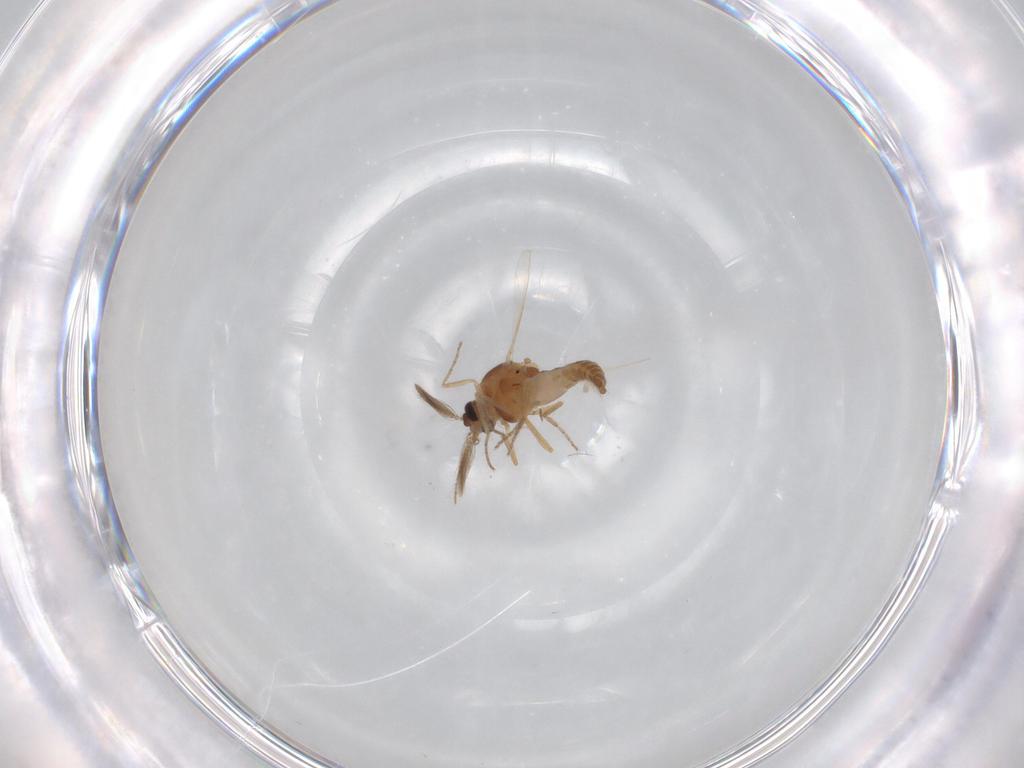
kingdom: Animalia
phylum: Arthropoda
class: Insecta
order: Diptera
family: Ceratopogonidae
